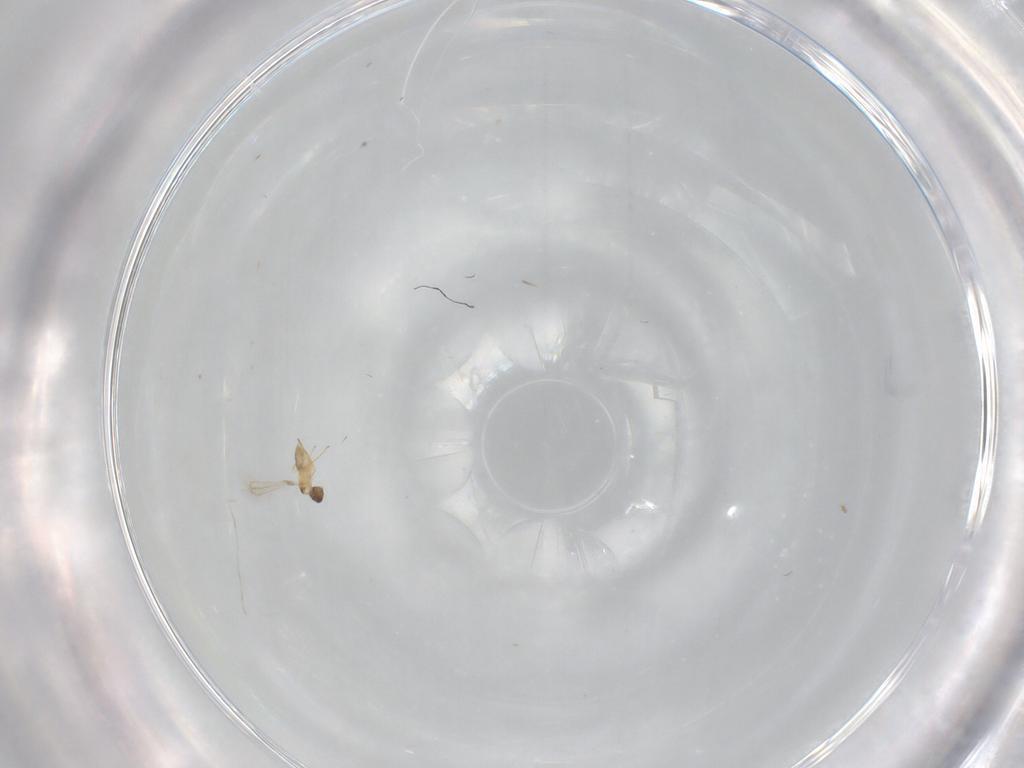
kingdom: Animalia
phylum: Arthropoda
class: Insecta
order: Hymenoptera
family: Mymaridae
